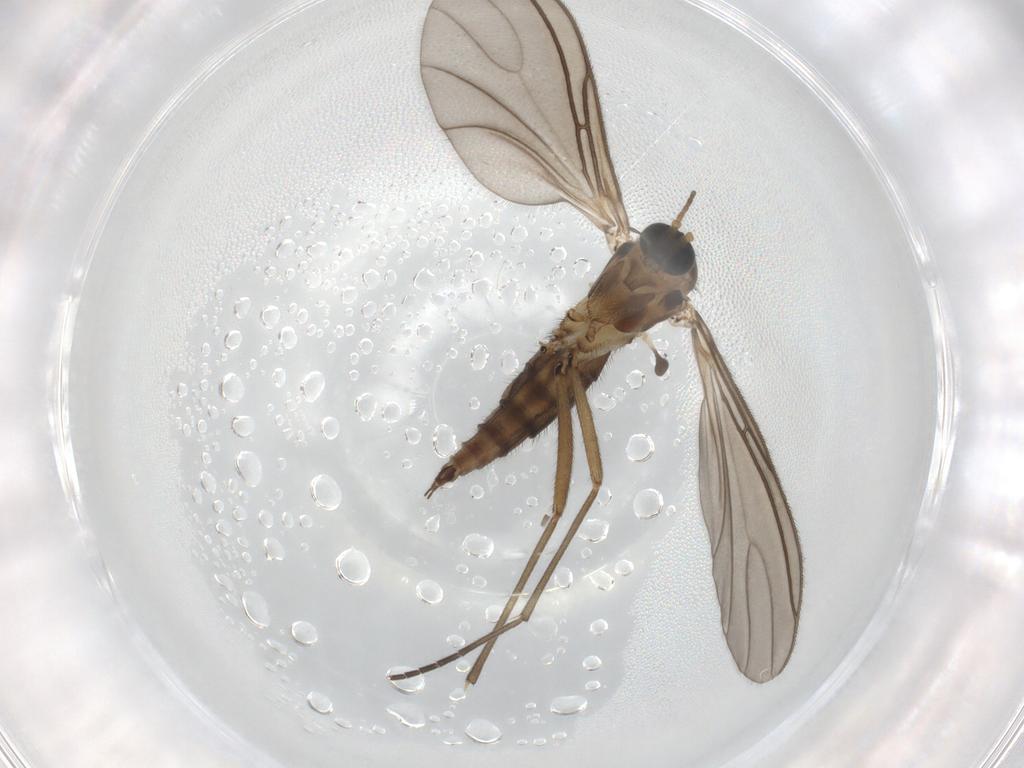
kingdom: Animalia
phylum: Arthropoda
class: Insecta
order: Diptera
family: Sciaridae
